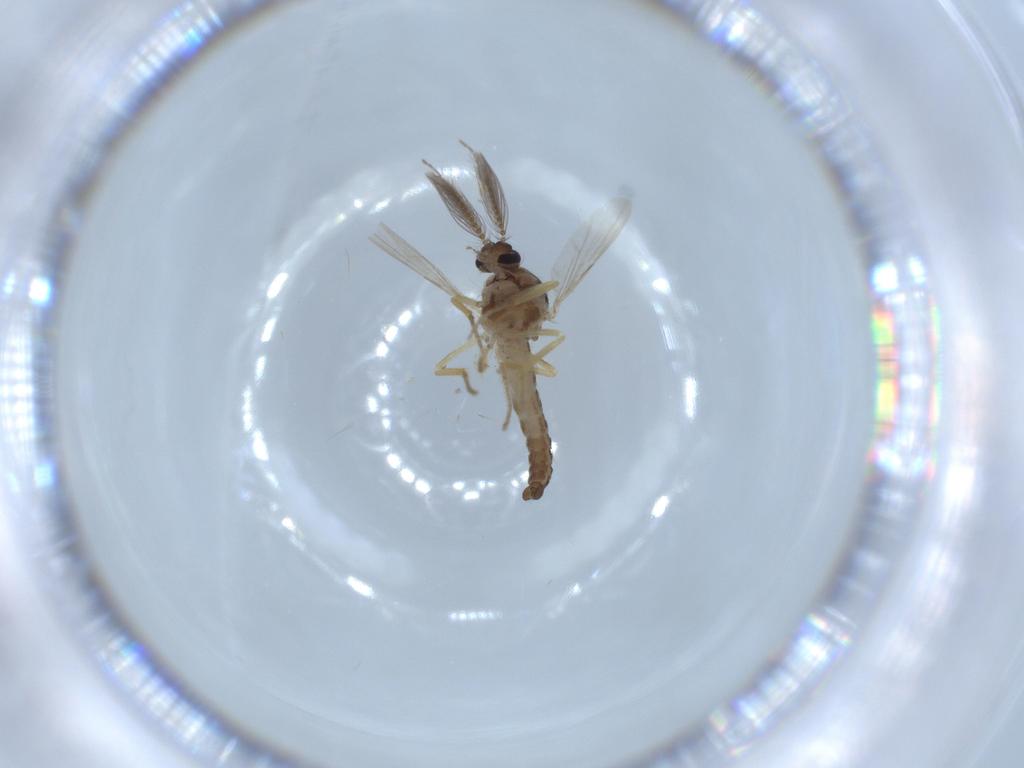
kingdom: Animalia
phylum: Arthropoda
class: Insecta
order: Diptera
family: Ceratopogonidae
